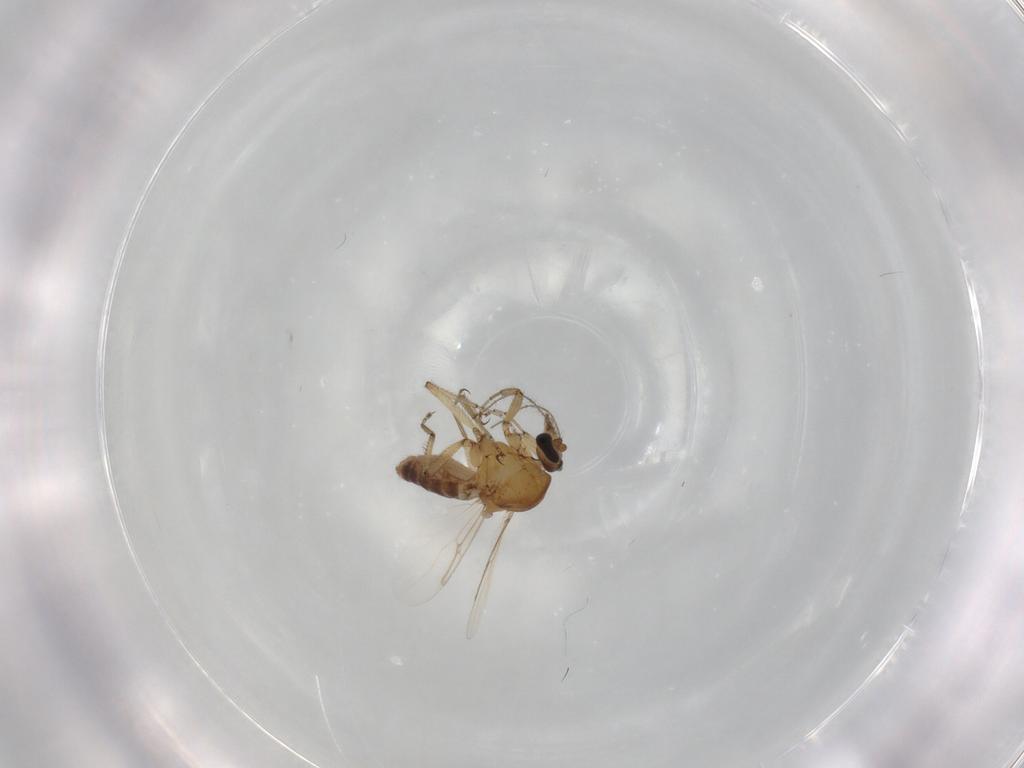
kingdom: Animalia
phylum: Arthropoda
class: Insecta
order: Diptera
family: Ceratopogonidae
